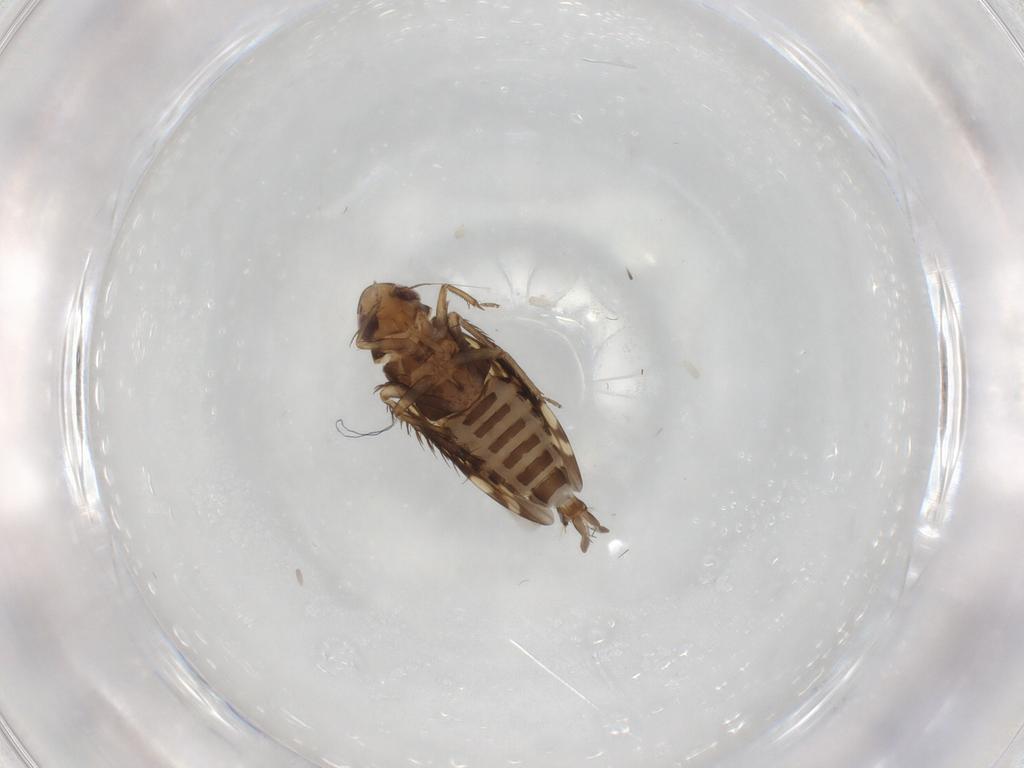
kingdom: Animalia
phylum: Arthropoda
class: Insecta
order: Hemiptera
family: Cicadellidae
